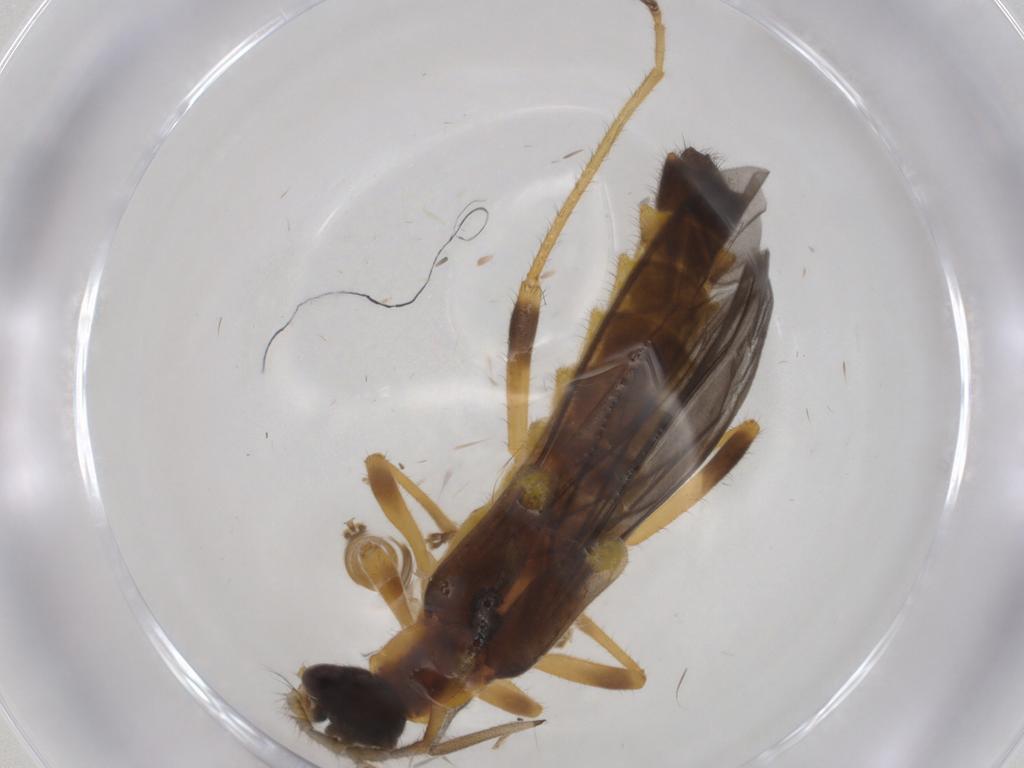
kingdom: Animalia
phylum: Arthropoda
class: Insecta
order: Coleoptera
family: Cantharidae
